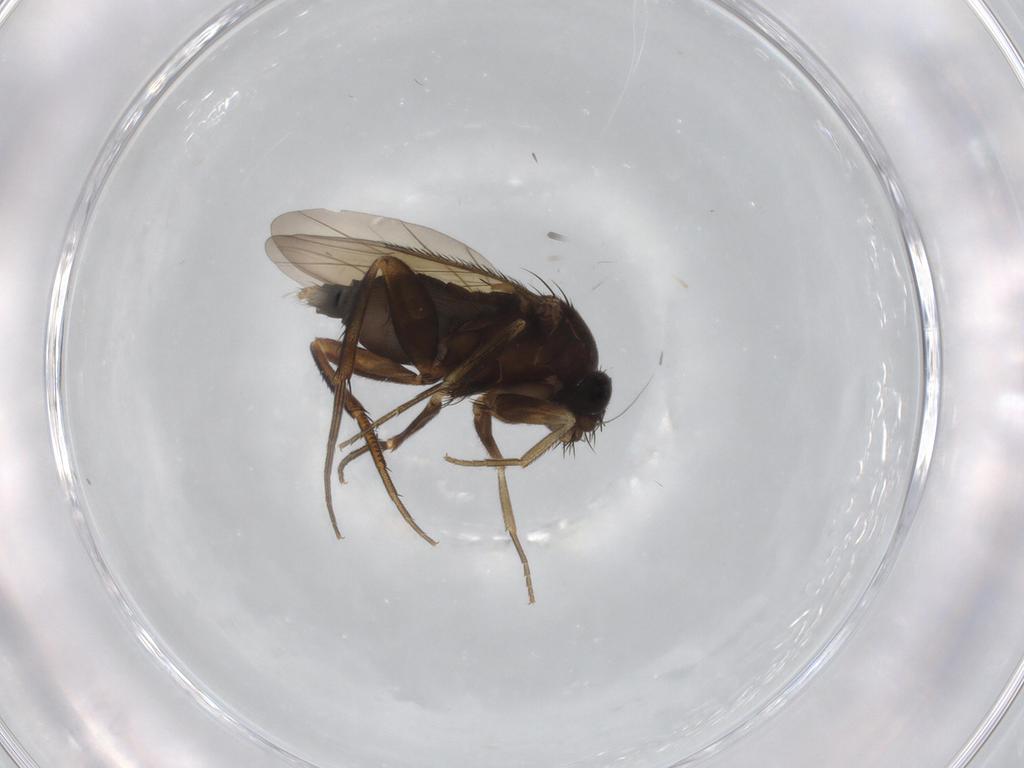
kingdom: Animalia
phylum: Arthropoda
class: Insecta
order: Diptera
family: Phoridae
